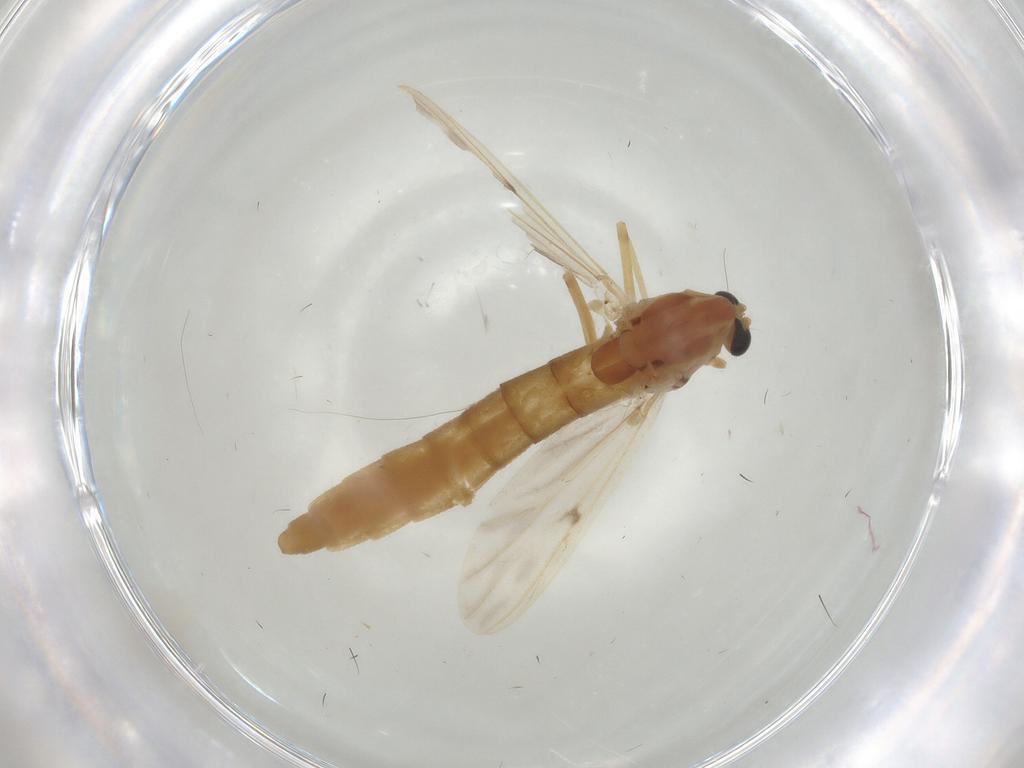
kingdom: Animalia
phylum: Arthropoda
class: Insecta
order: Diptera
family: Chironomidae
